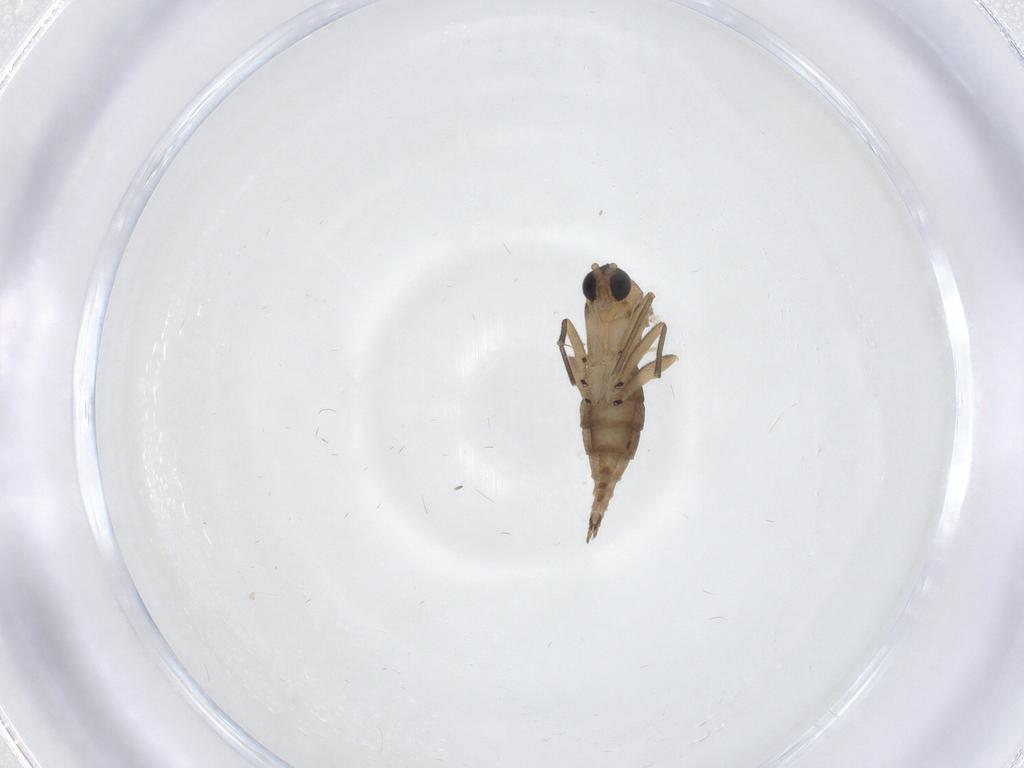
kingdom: Animalia
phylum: Arthropoda
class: Insecta
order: Diptera
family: Sciaridae
